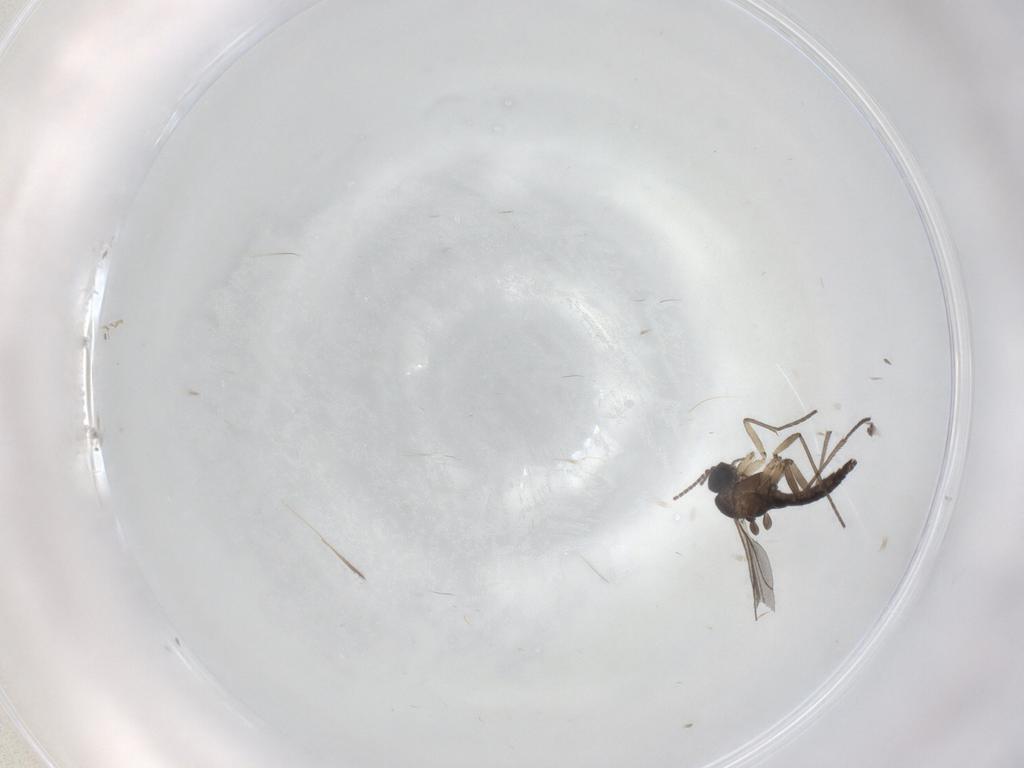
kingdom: Animalia
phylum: Arthropoda
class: Insecta
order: Diptera
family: Sciaridae
